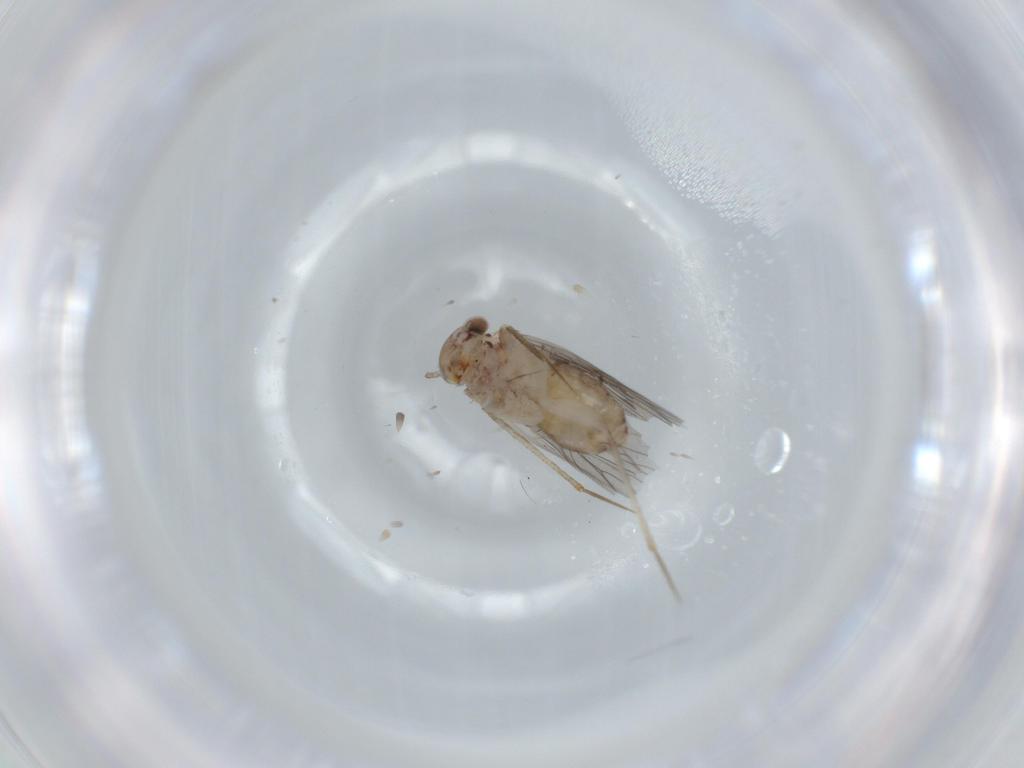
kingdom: Animalia
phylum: Arthropoda
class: Insecta
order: Psocodea
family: Lepidopsocidae
